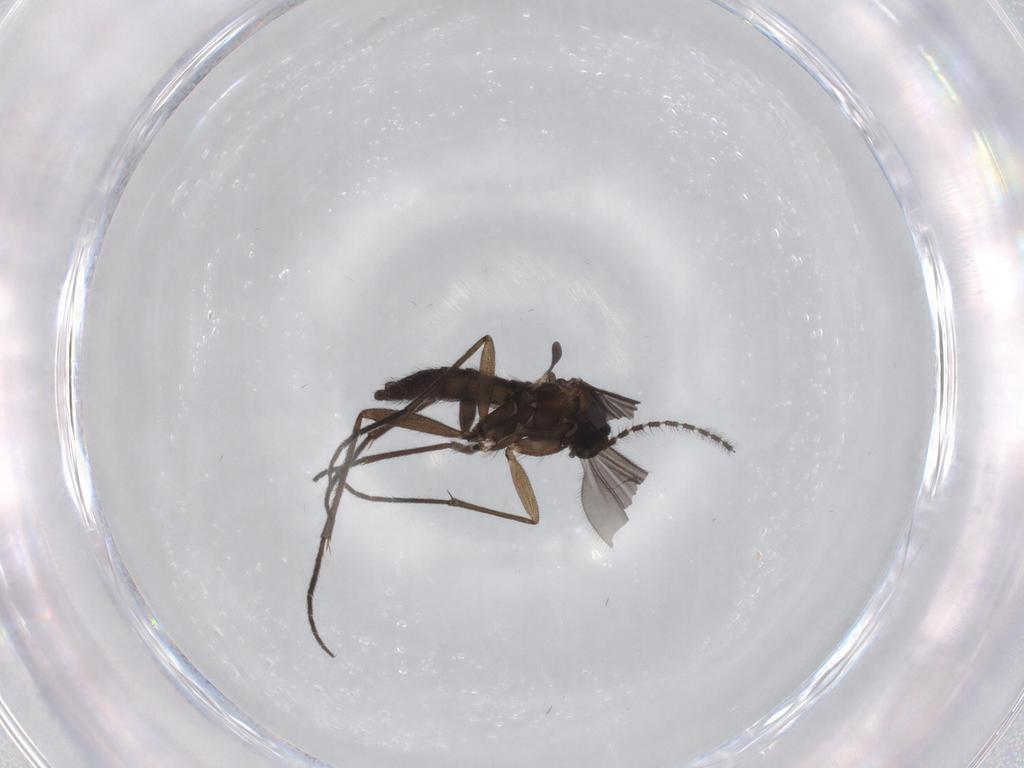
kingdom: Animalia
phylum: Arthropoda
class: Insecta
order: Diptera
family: Sciaridae
